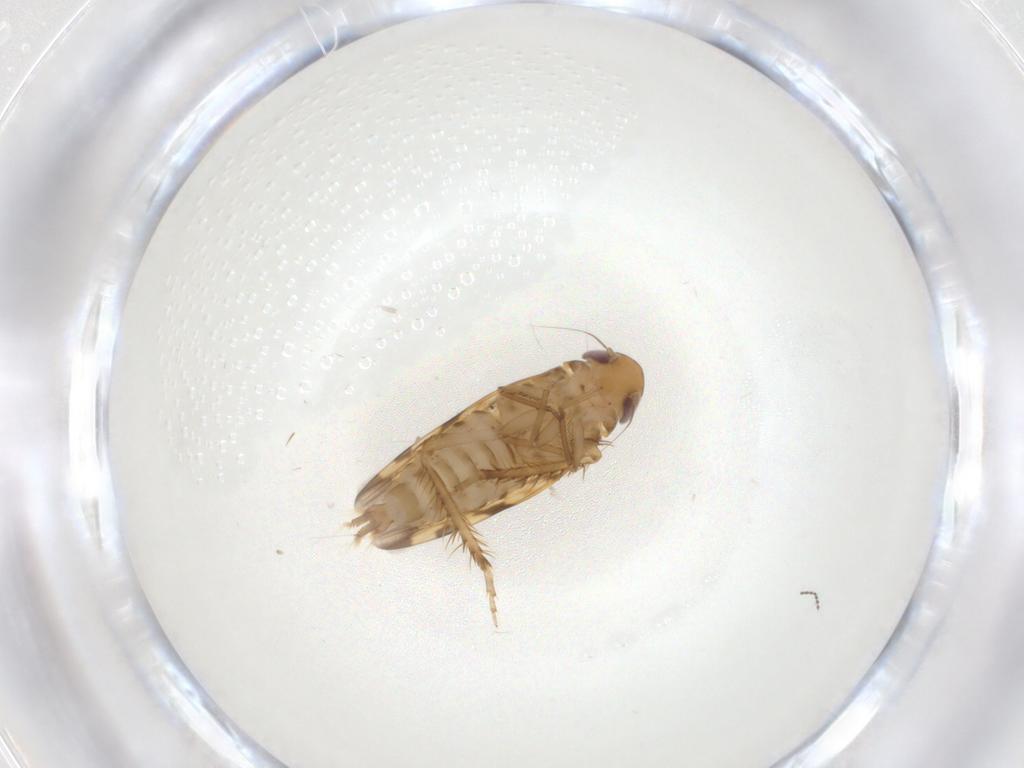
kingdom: Animalia
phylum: Arthropoda
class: Insecta
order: Hemiptera
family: Cicadellidae
